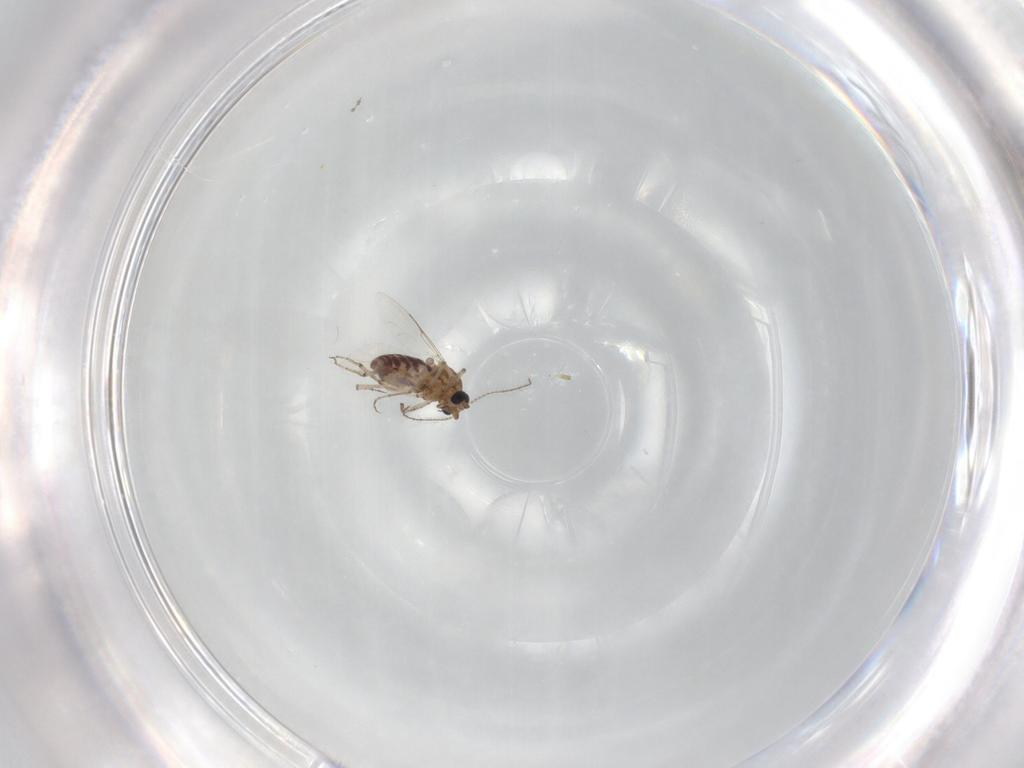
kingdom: Animalia
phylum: Arthropoda
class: Insecta
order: Diptera
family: Ceratopogonidae
